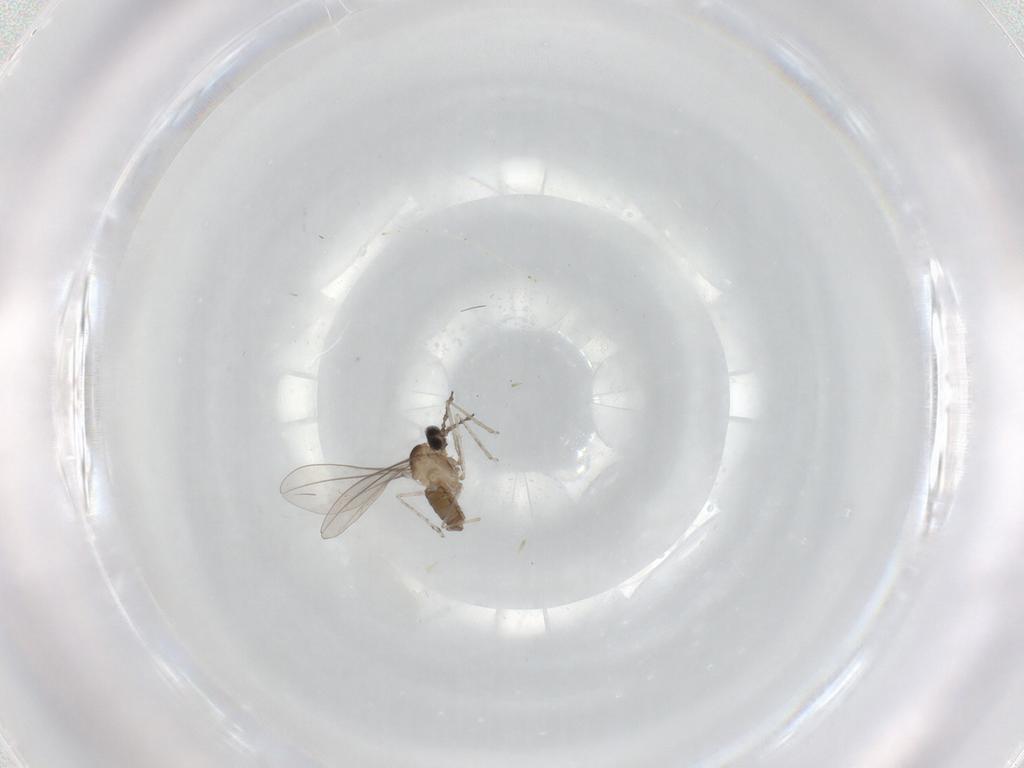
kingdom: Animalia
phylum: Arthropoda
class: Insecta
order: Diptera
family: Cecidomyiidae
